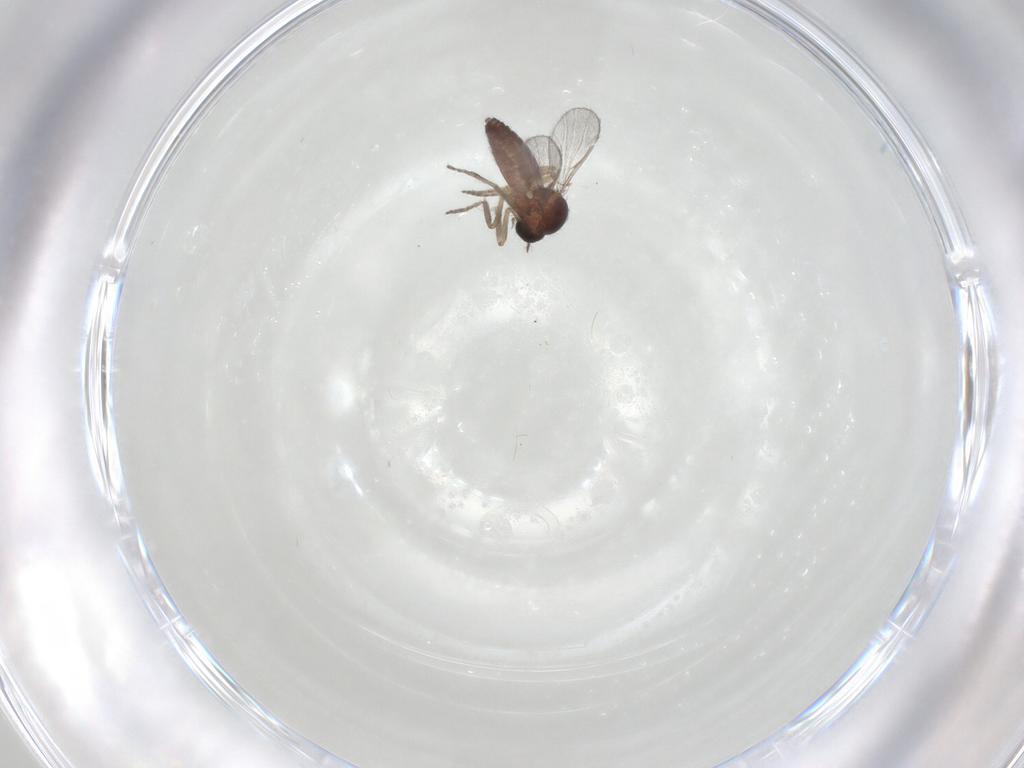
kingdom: Animalia
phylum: Arthropoda
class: Insecta
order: Diptera
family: Ceratopogonidae
